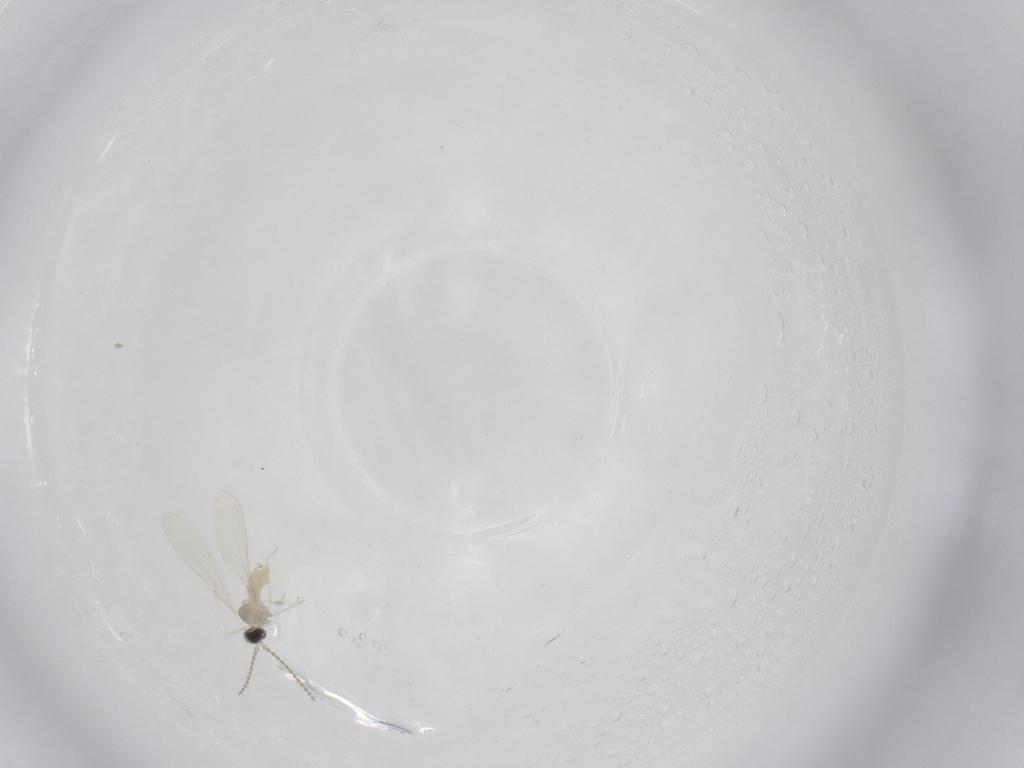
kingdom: Animalia
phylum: Arthropoda
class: Insecta
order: Diptera
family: Cecidomyiidae
